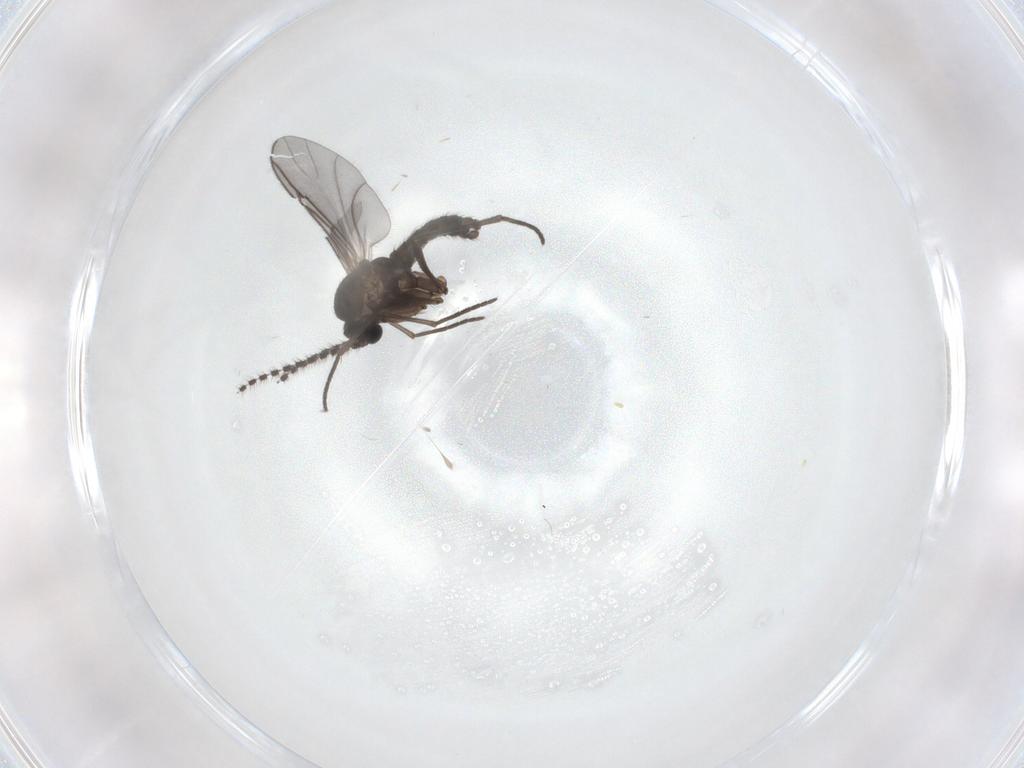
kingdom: Animalia
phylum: Arthropoda
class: Insecta
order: Diptera
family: Sciaridae
